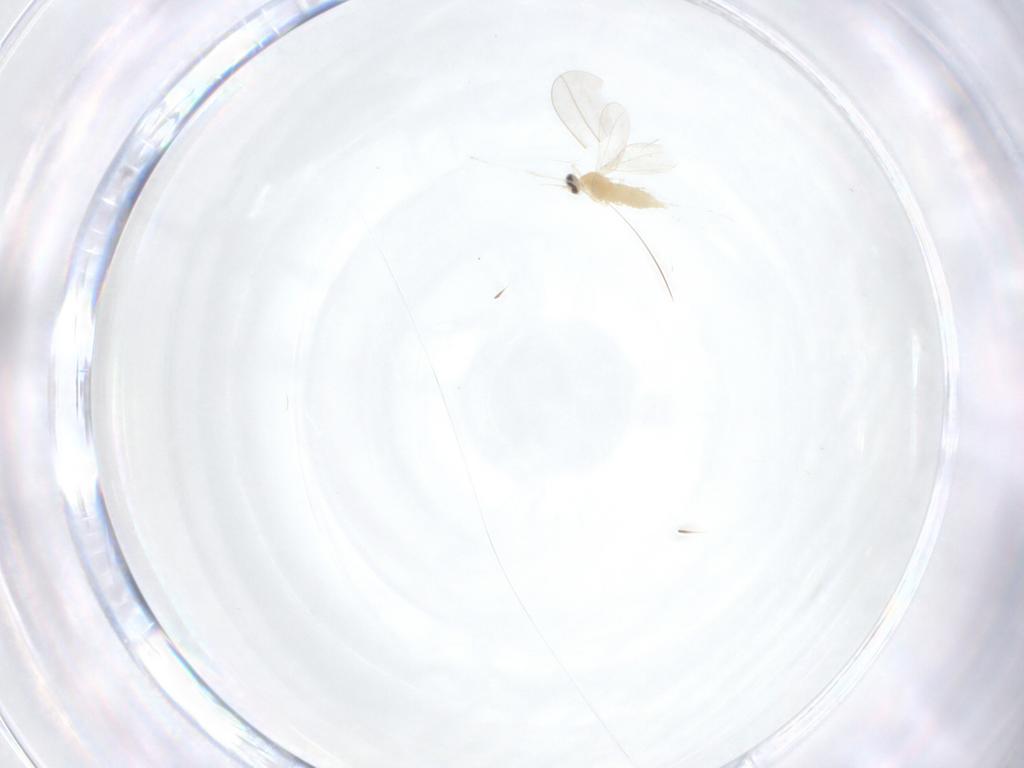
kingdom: Animalia
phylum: Arthropoda
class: Insecta
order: Diptera
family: Cecidomyiidae
